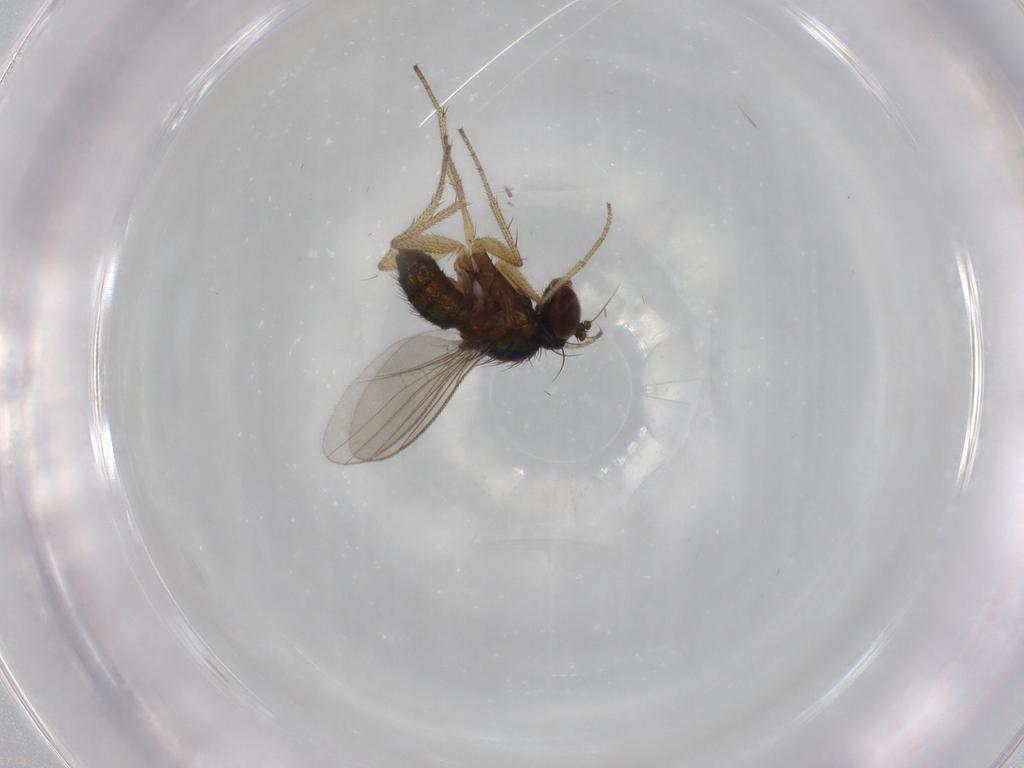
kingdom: Animalia
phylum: Arthropoda
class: Insecta
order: Diptera
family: Dolichopodidae
